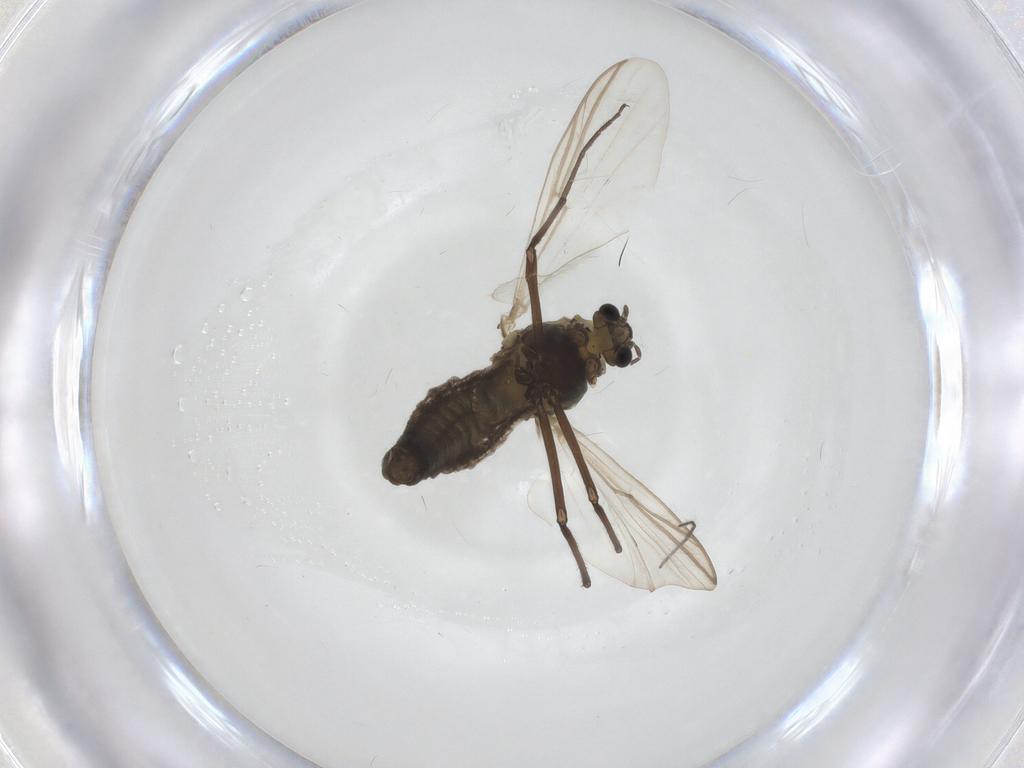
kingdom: Animalia
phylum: Arthropoda
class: Insecta
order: Diptera
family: Chironomidae
